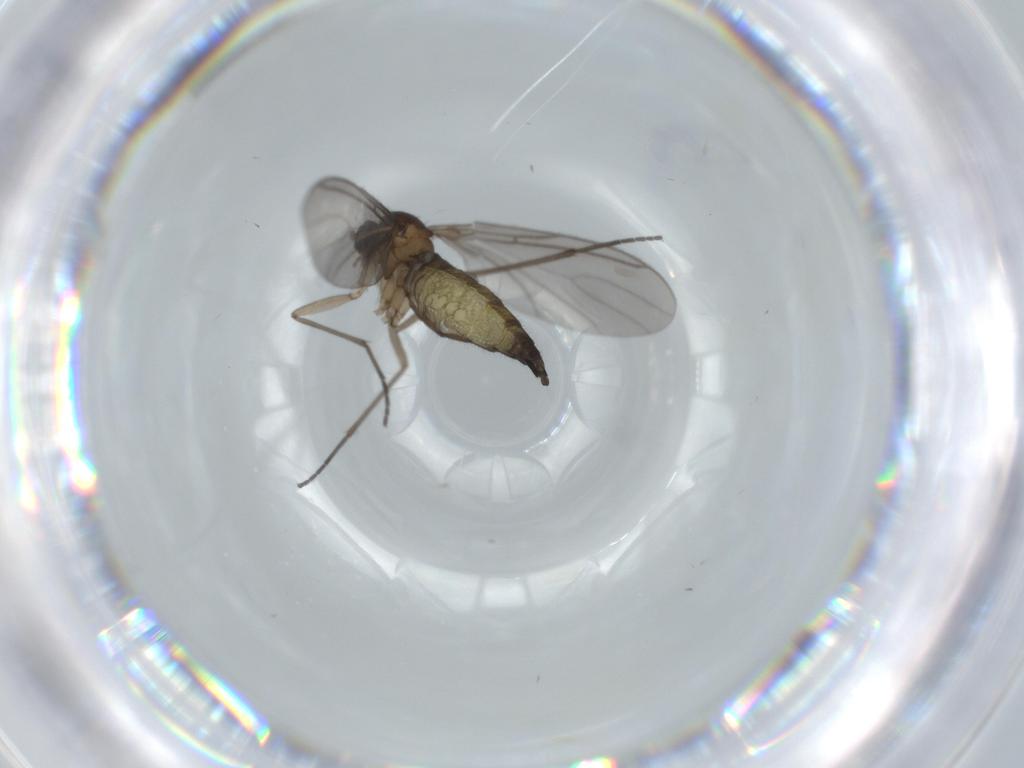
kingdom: Animalia
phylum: Arthropoda
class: Insecta
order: Diptera
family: Sciaridae
